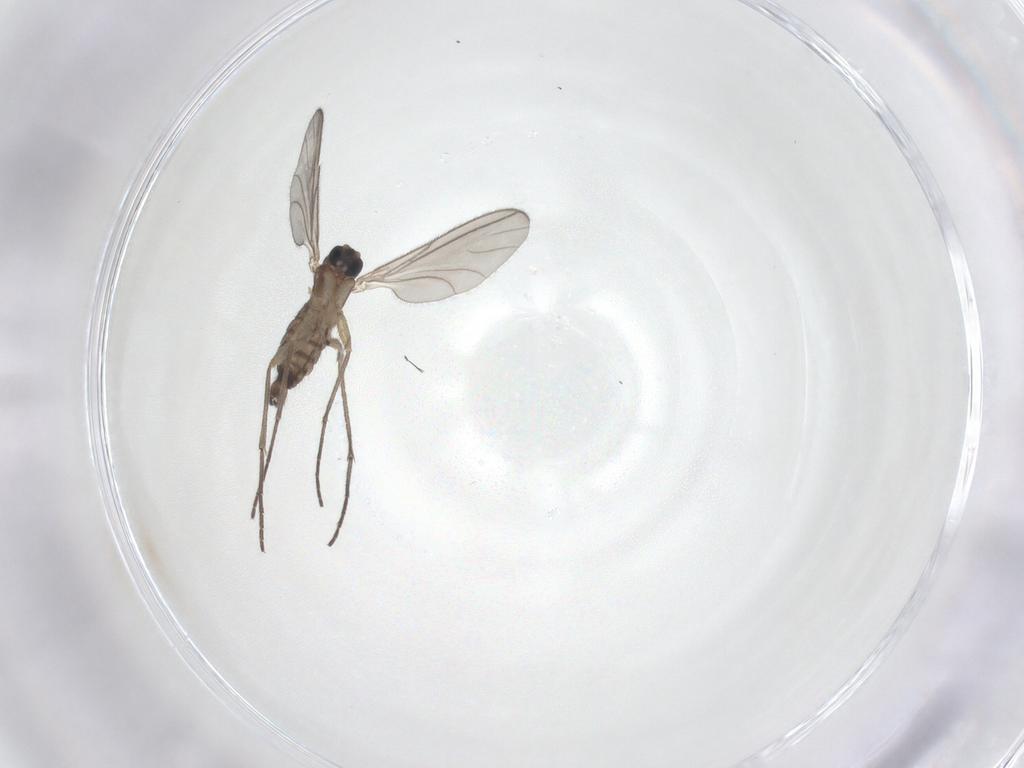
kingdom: Animalia
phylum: Arthropoda
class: Insecta
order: Diptera
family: Sciaridae
